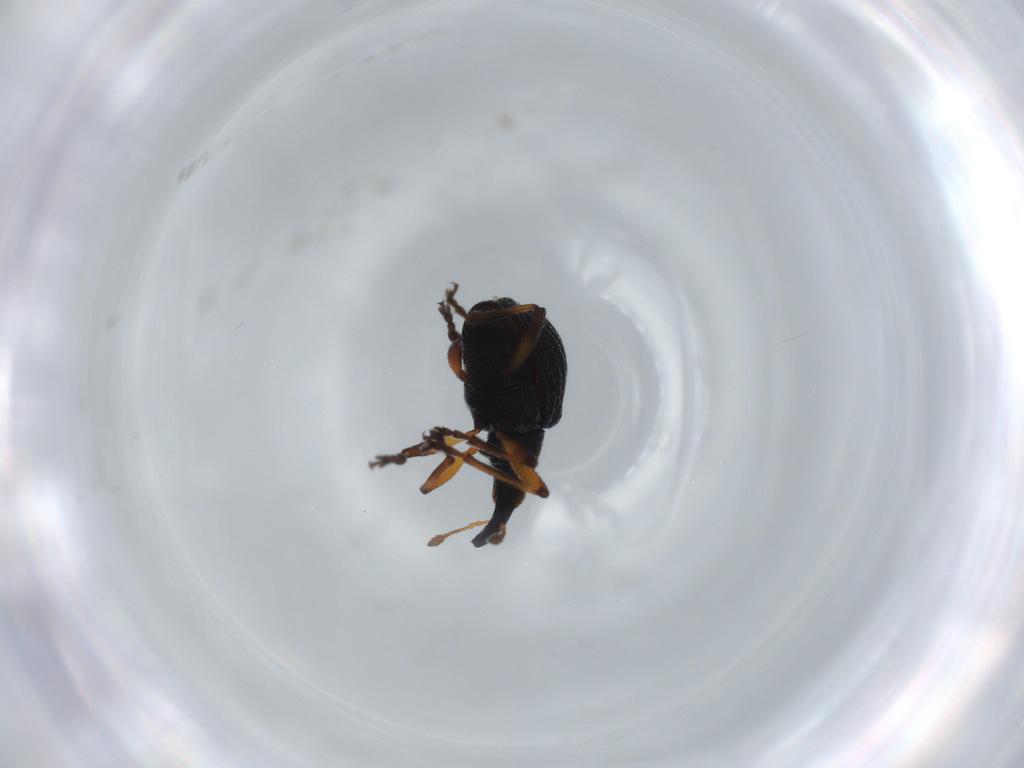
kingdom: Animalia
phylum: Arthropoda
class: Insecta
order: Coleoptera
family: Brentidae
